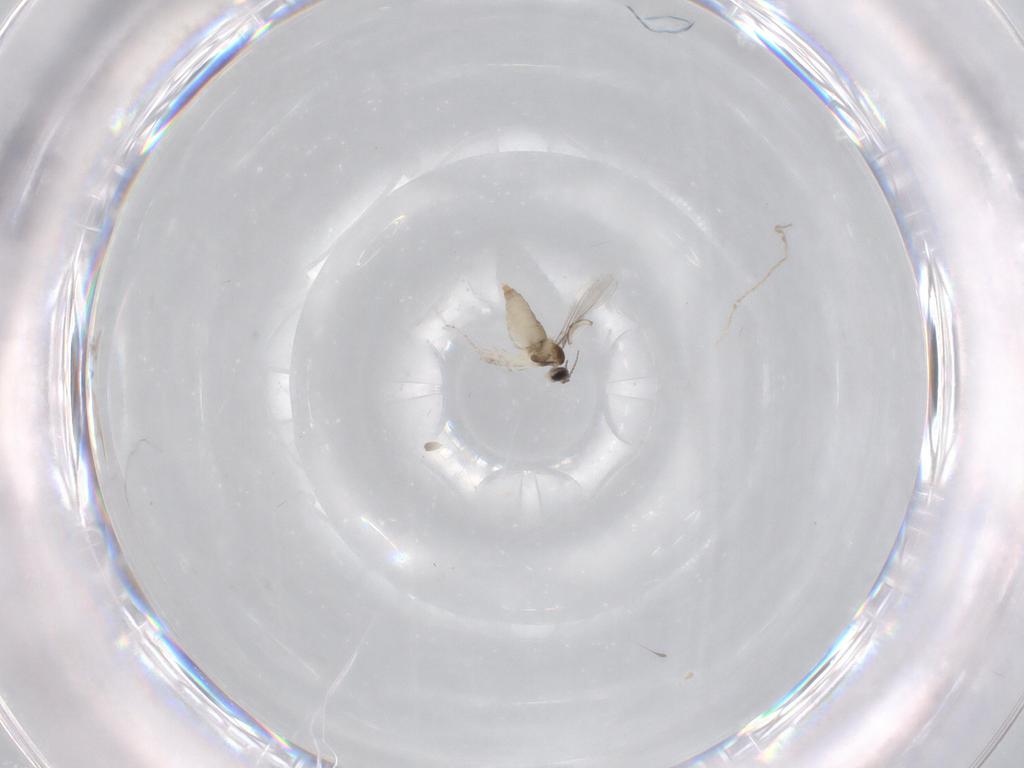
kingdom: Animalia
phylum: Arthropoda
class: Insecta
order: Diptera
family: Psychodidae
